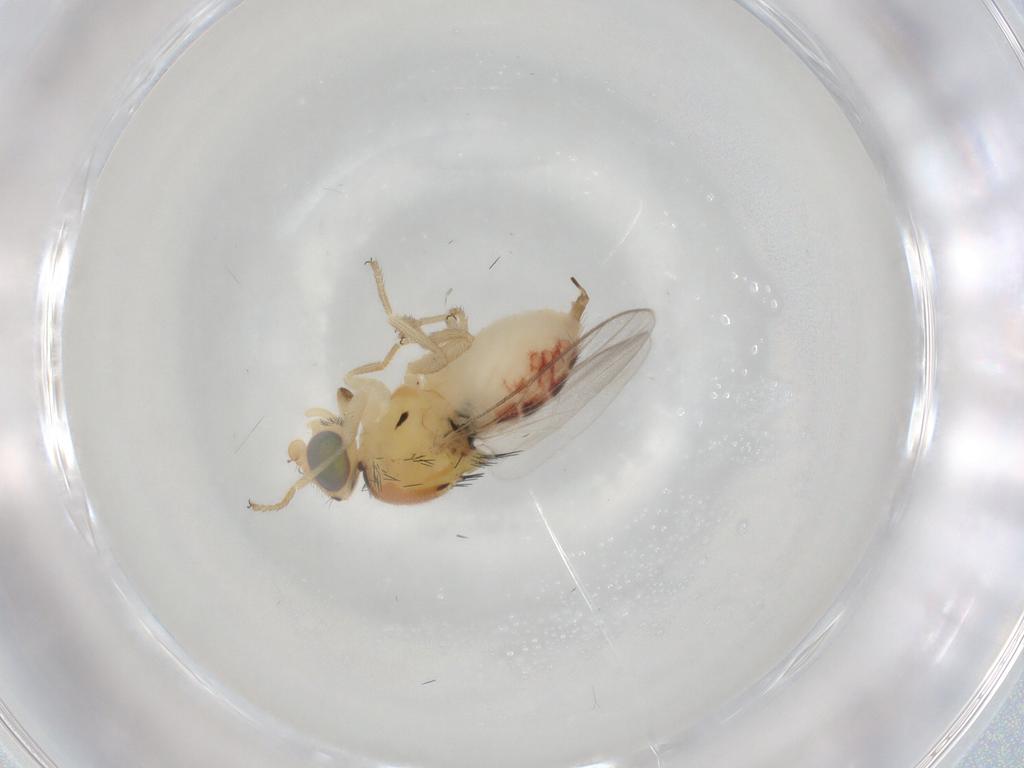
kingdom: Animalia
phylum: Arthropoda
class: Insecta
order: Diptera
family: Chloropidae
